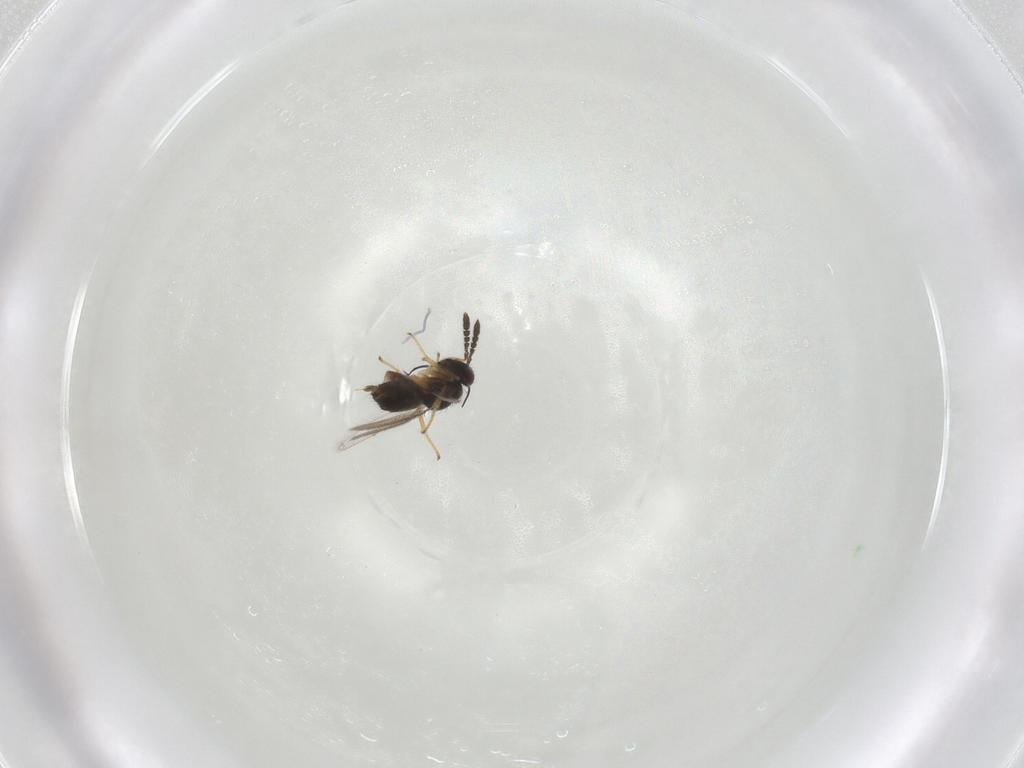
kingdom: Animalia
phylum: Arthropoda
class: Insecta
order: Hymenoptera
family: Pirenidae
